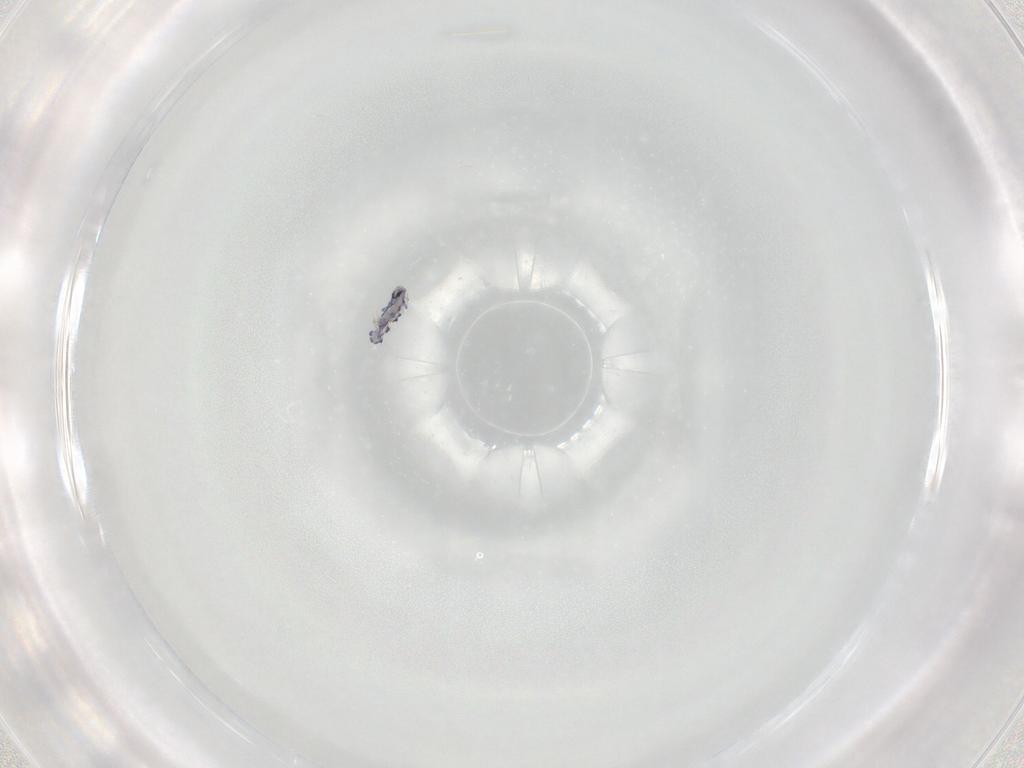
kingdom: Animalia
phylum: Arthropoda
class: Collembola
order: Entomobryomorpha
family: Entomobryidae
